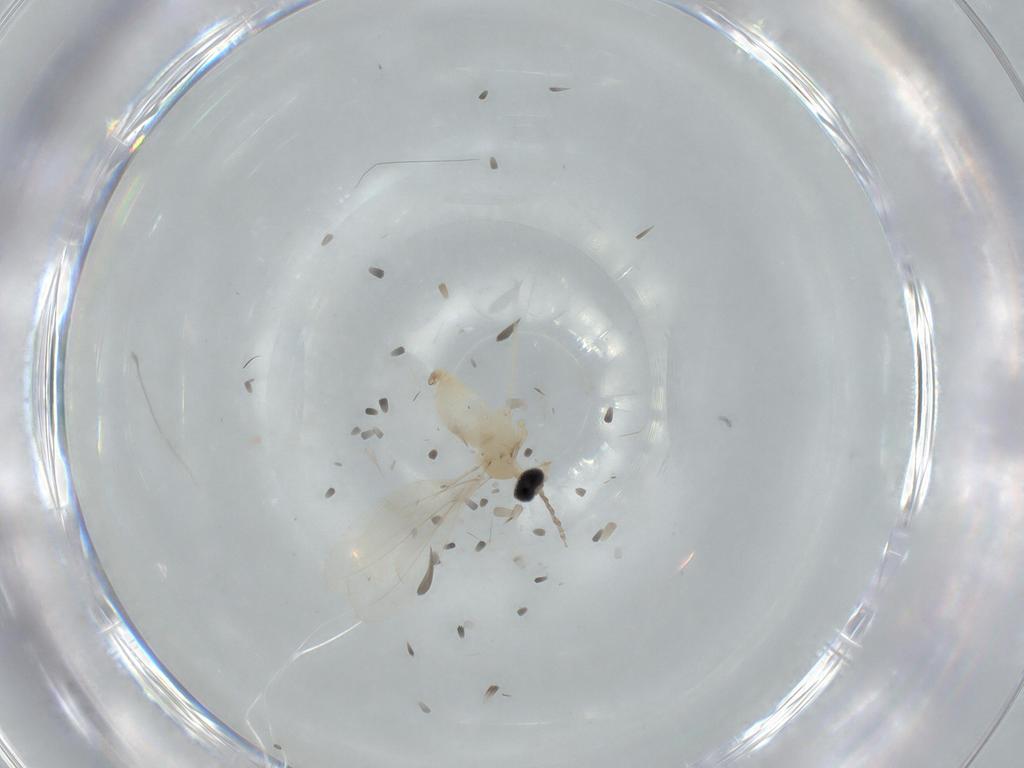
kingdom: Animalia
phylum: Arthropoda
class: Insecta
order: Diptera
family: Cecidomyiidae
